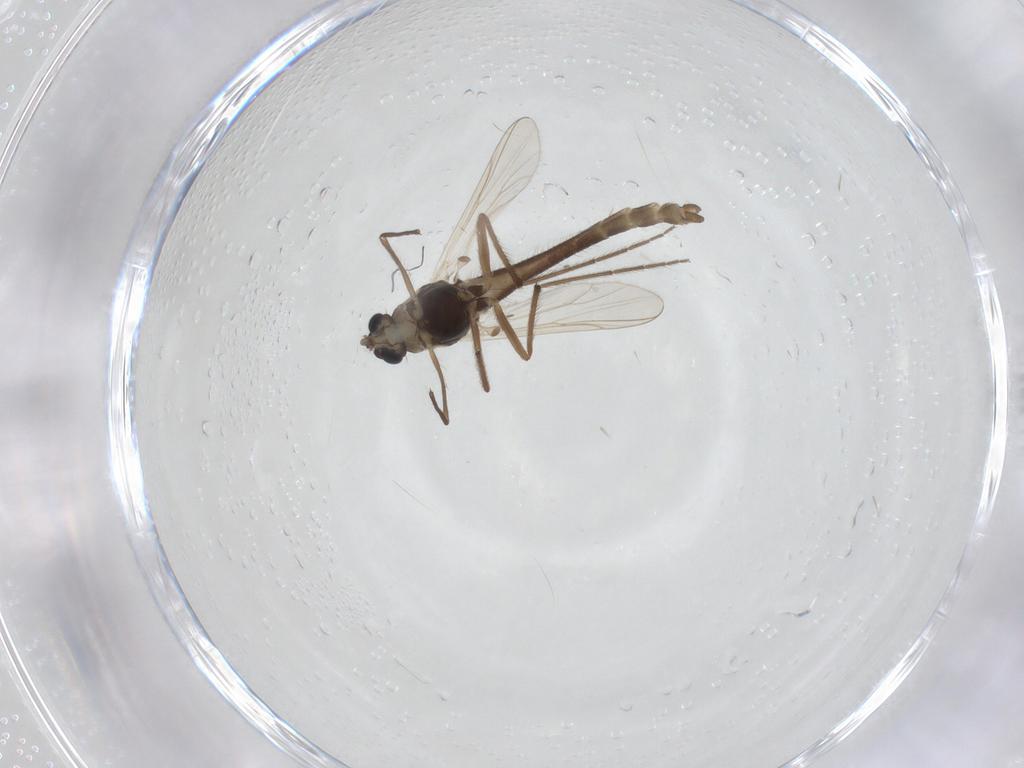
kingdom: Animalia
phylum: Arthropoda
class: Insecta
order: Diptera
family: Chironomidae
